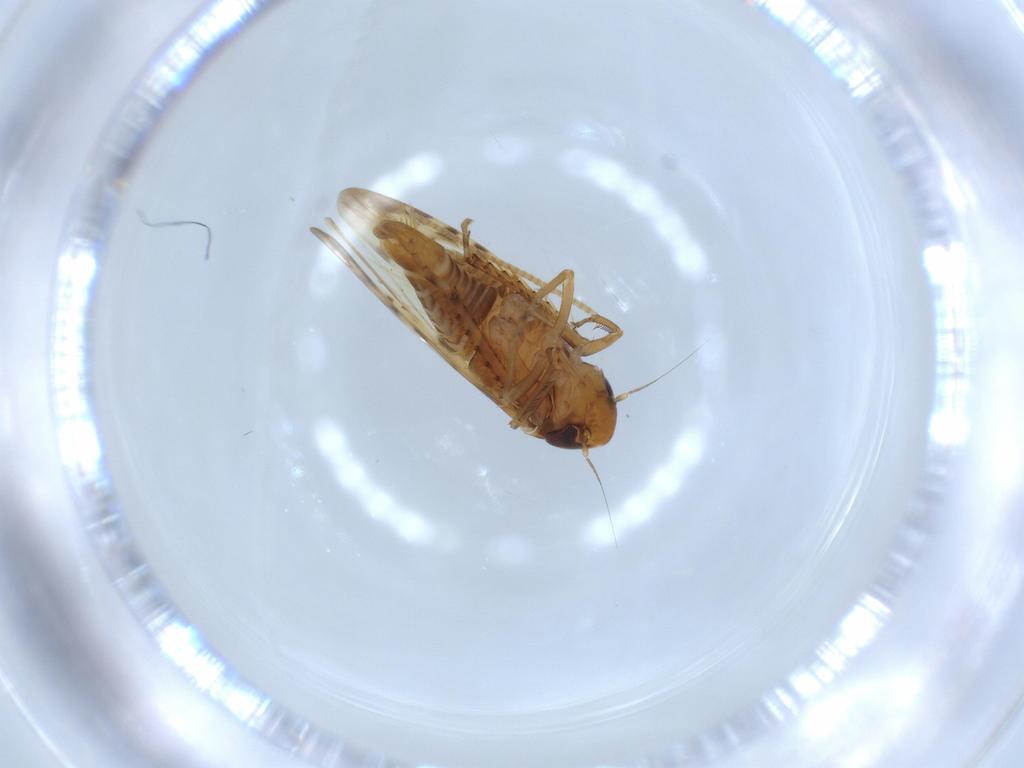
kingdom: Animalia
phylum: Arthropoda
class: Insecta
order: Hemiptera
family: Cicadellidae
